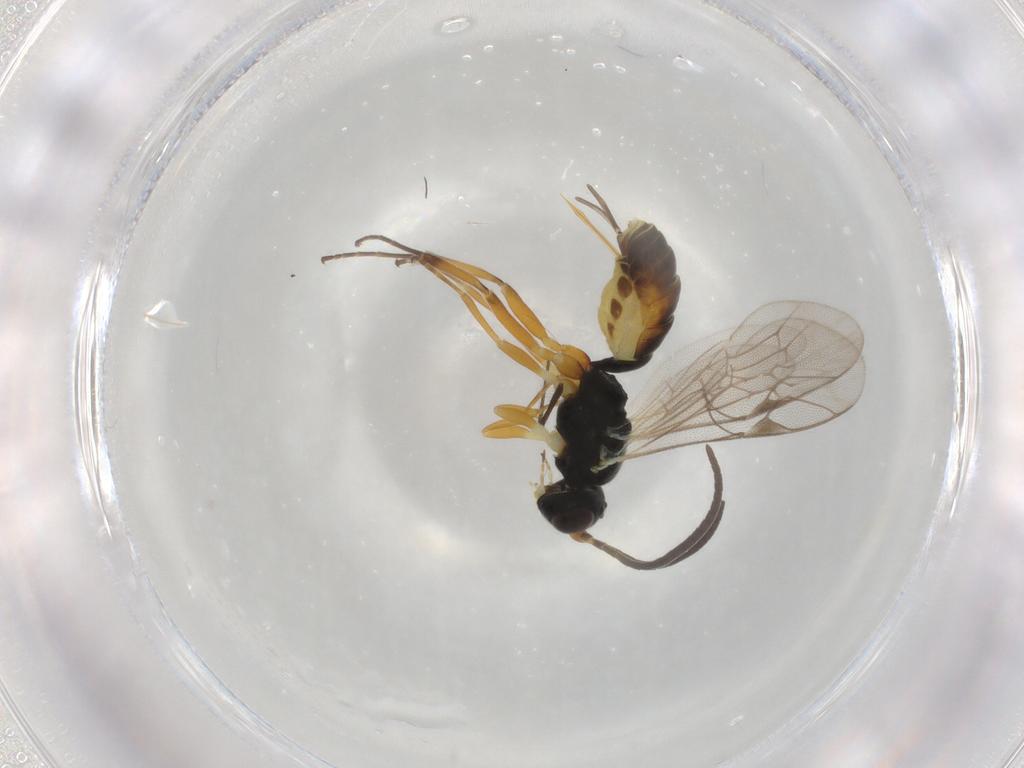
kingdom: Animalia
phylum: Arthropoda
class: Insecta
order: Hymenoptera
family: Ichneumonidae
